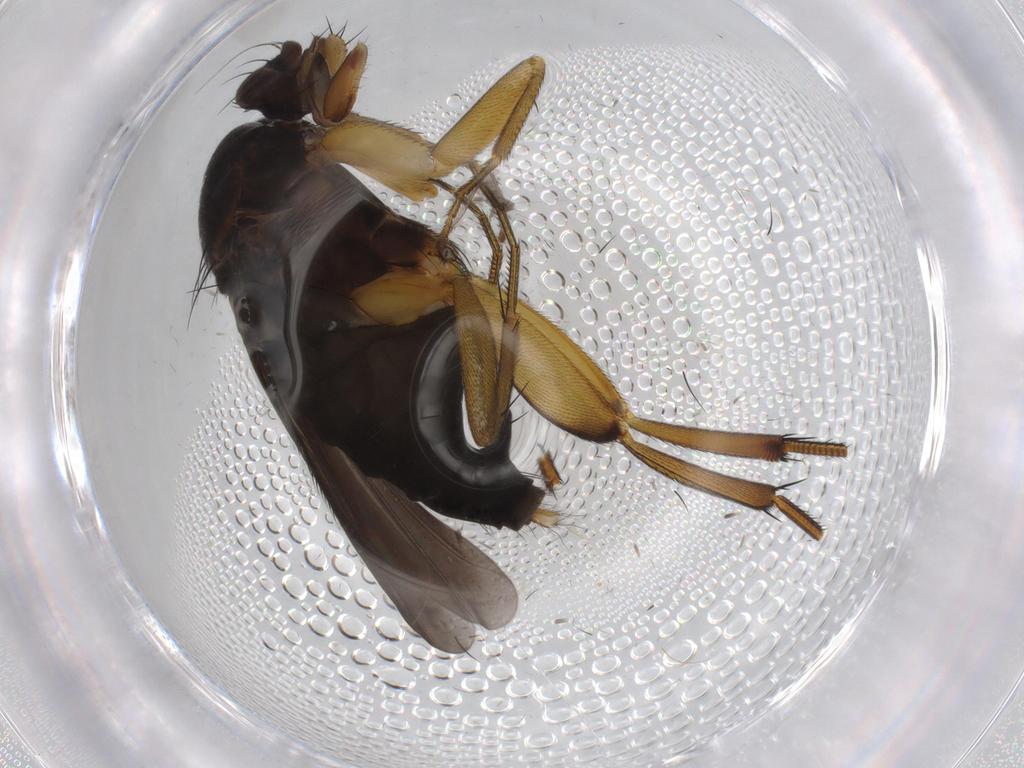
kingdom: Animalia
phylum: Arthropoda
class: Insecta
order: Diptera
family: Phoridae
